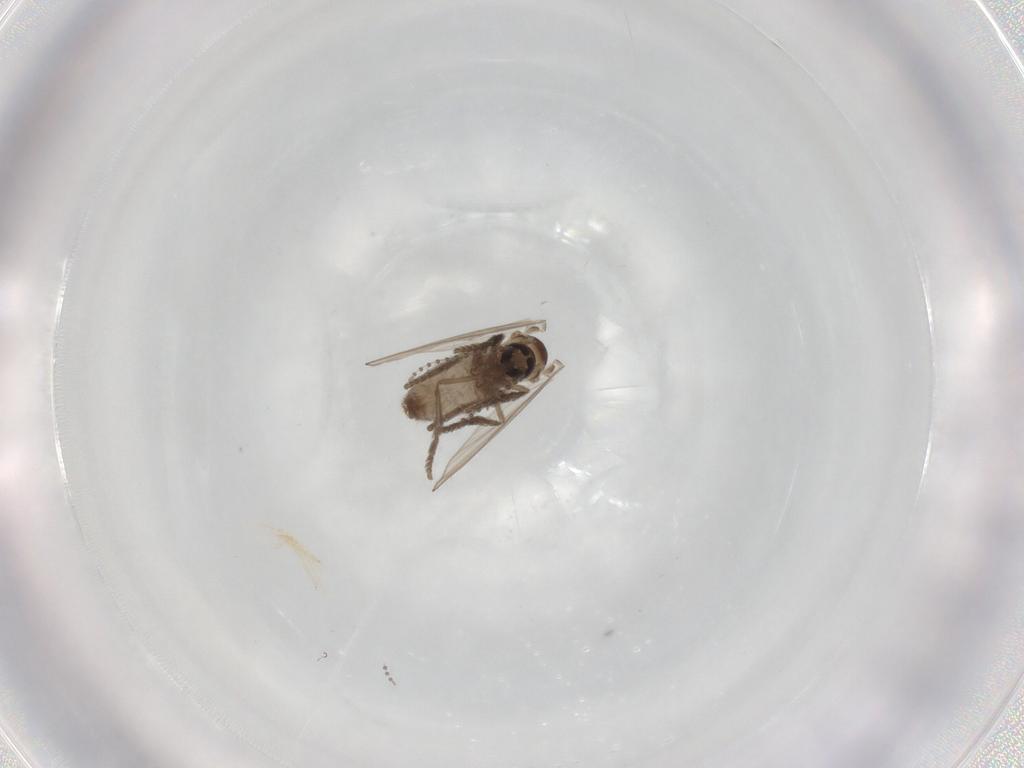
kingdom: Animalia
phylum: Arthropoda
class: Insecta
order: Diptera
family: Psychodidae
